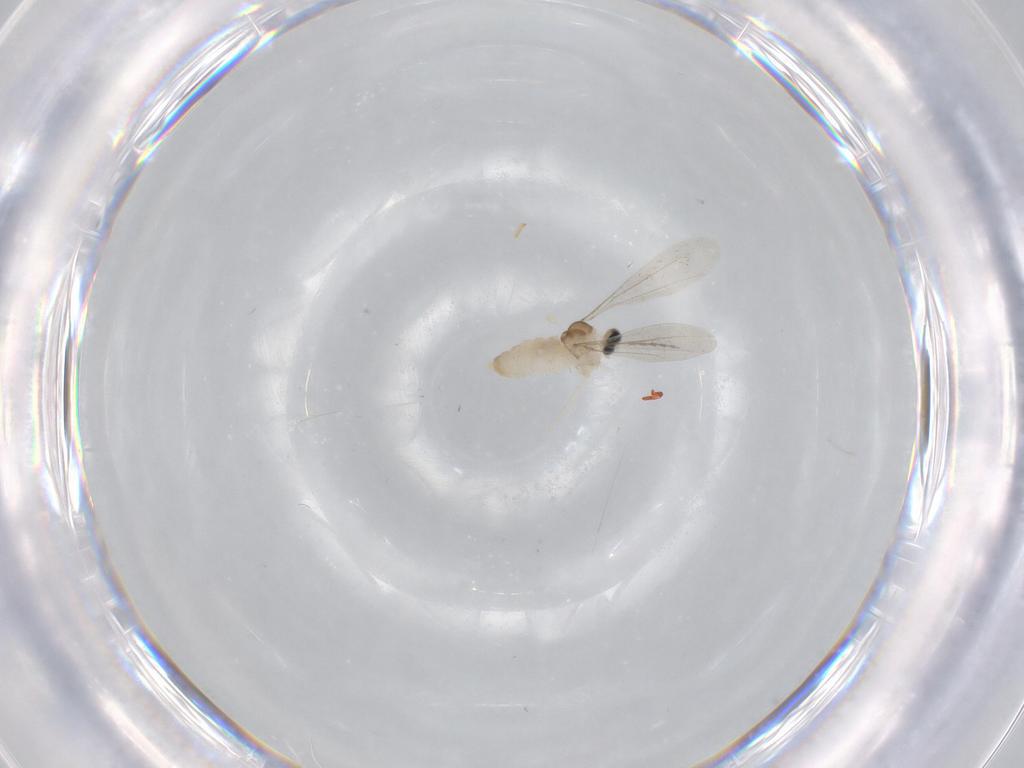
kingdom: Animalia
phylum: Arthropoda
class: Insecta
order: Diptera
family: Cecidomyiidae
